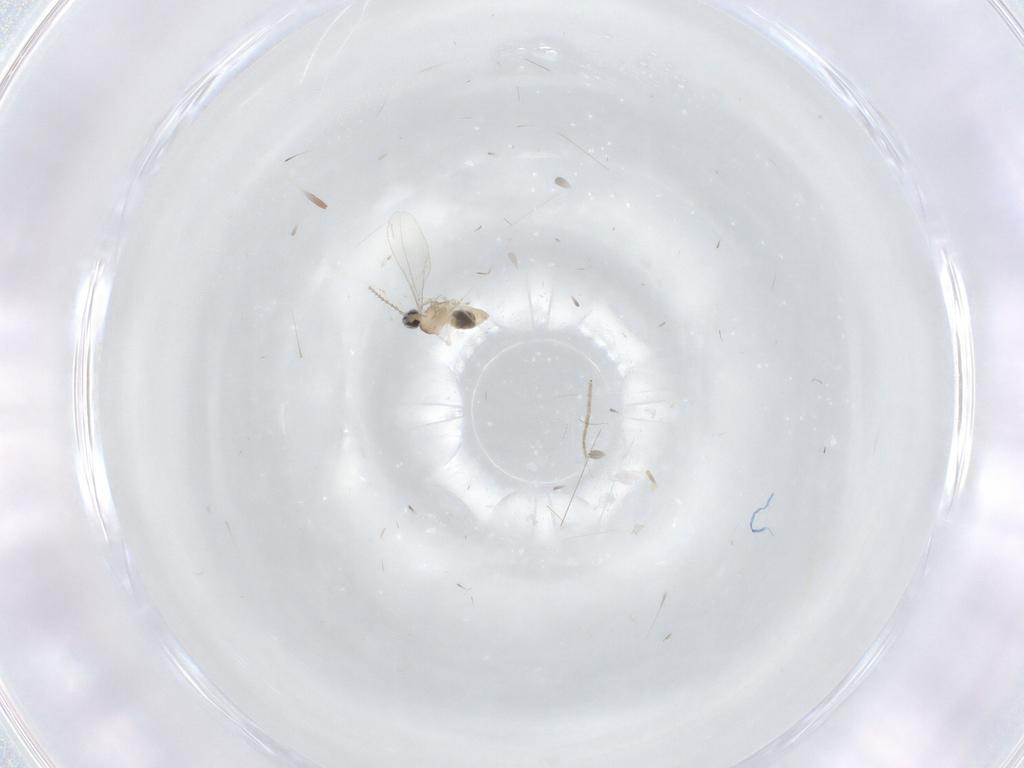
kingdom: Animalia
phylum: Arthropoda
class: Insecta
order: Diptera
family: Cecidomyiidae
